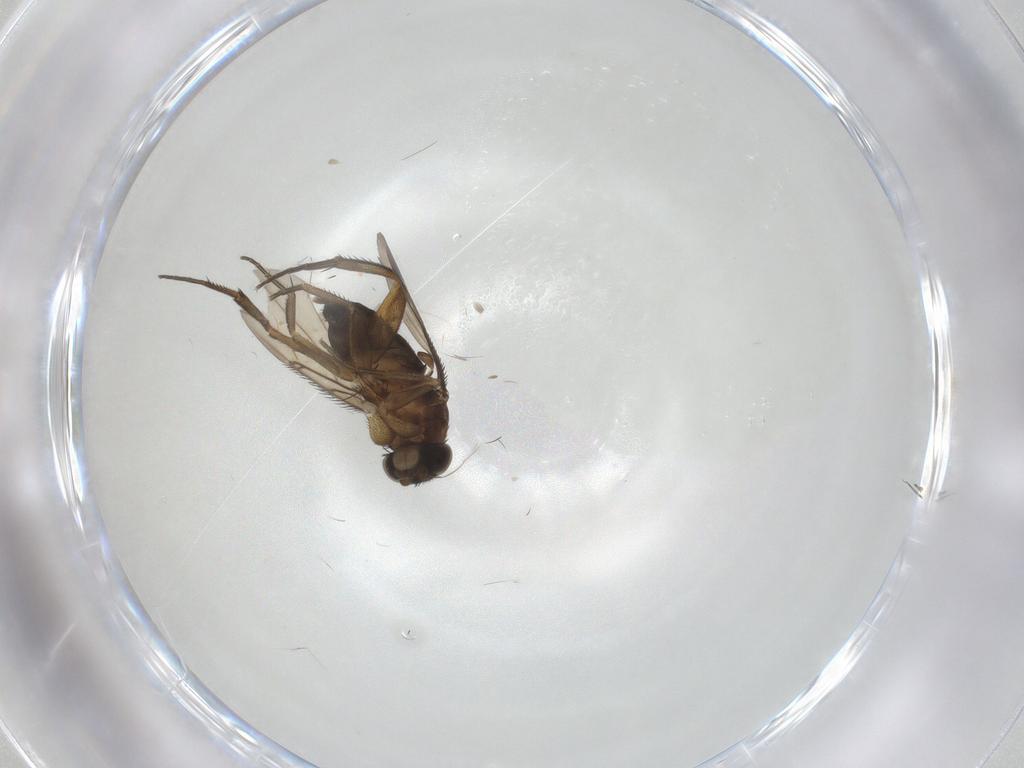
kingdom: Animalia
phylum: Arthropoda
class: Insecta
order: Diptera
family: Phoridae
